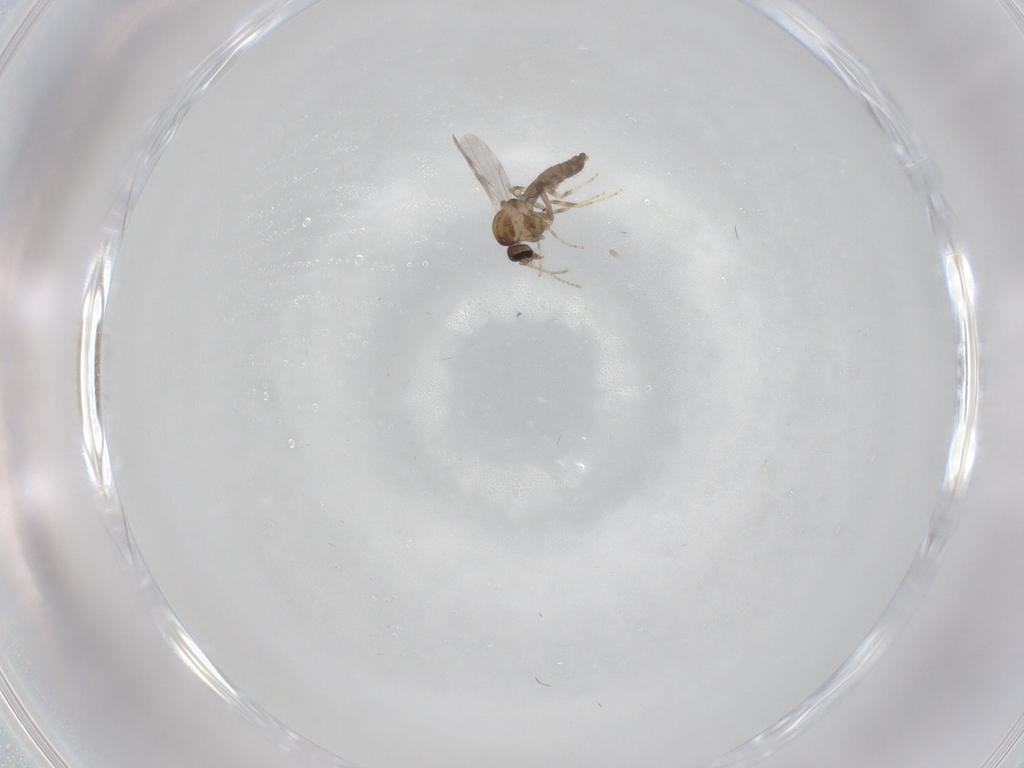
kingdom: Animalia
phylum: Arthropoda
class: Insecta
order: Diptera
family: Ceratopogonidae
